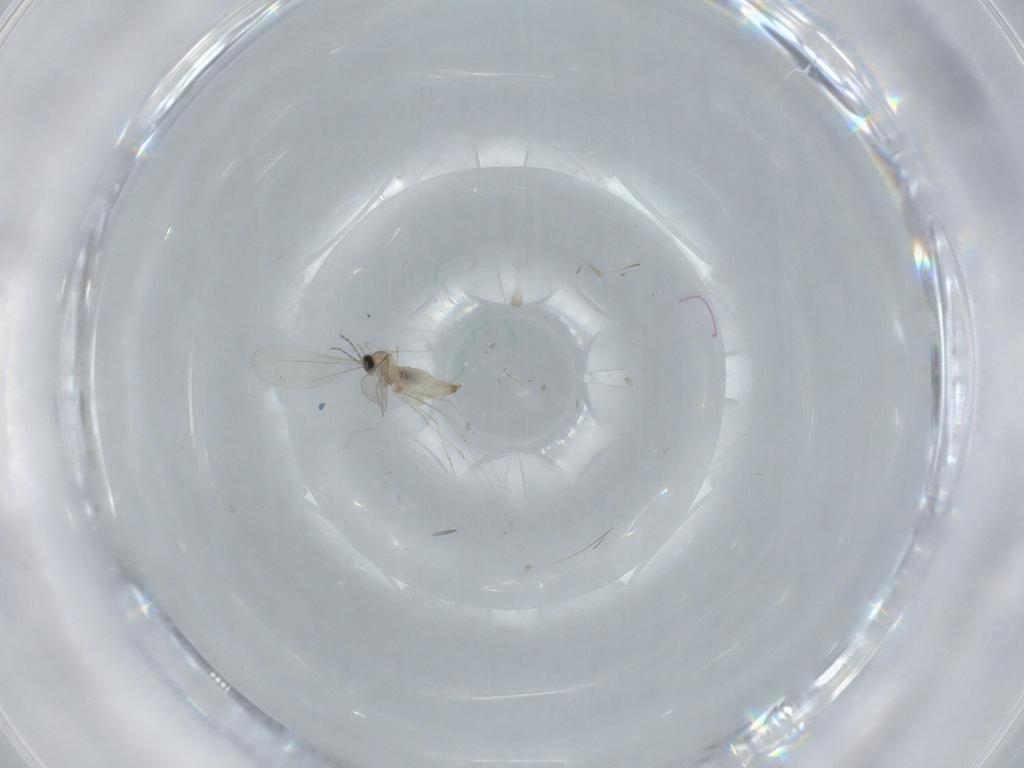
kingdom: Animalia
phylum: Arthropoda
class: Insecta
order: Diptera
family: Cecidomyiidae
